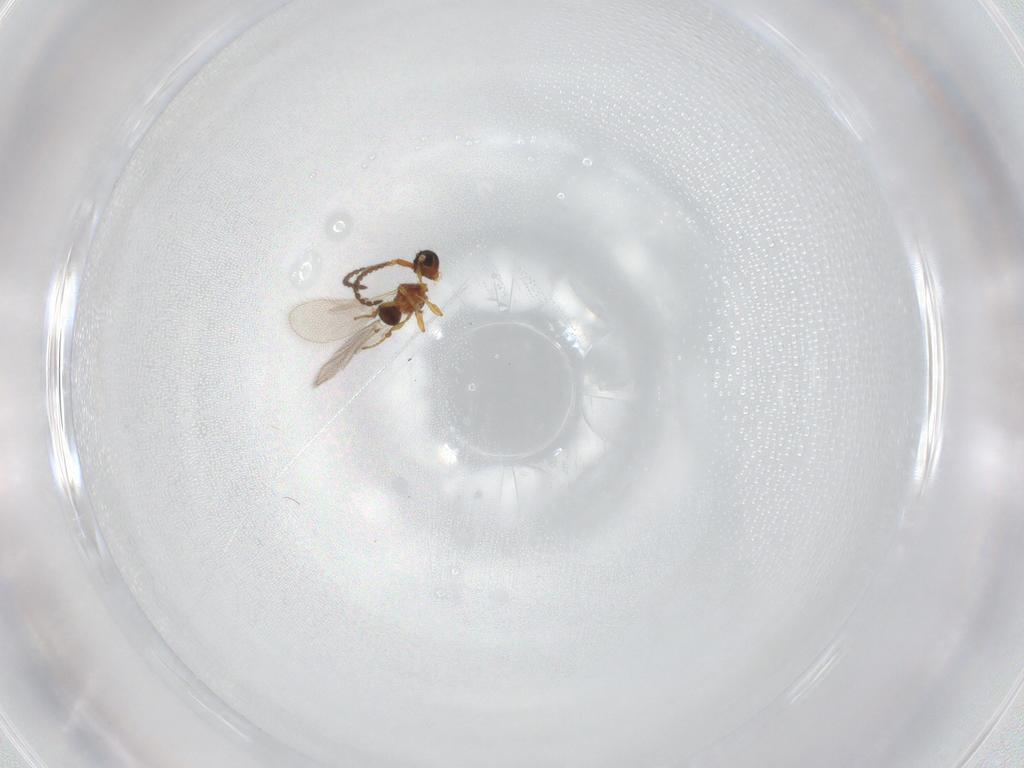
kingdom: Animalia
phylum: Arthropoda
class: Insecta
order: Hymenoptera
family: Diapriidae
